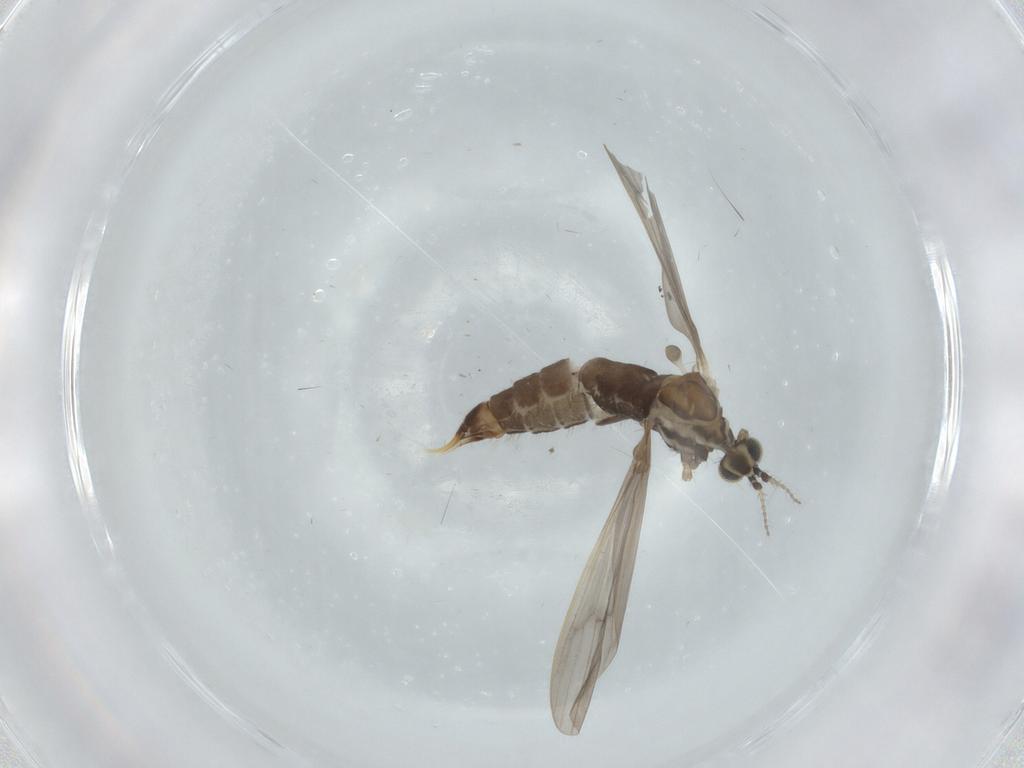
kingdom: Animalia
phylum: Arthropoda
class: Insecta
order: Diptera
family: Limoniidae
